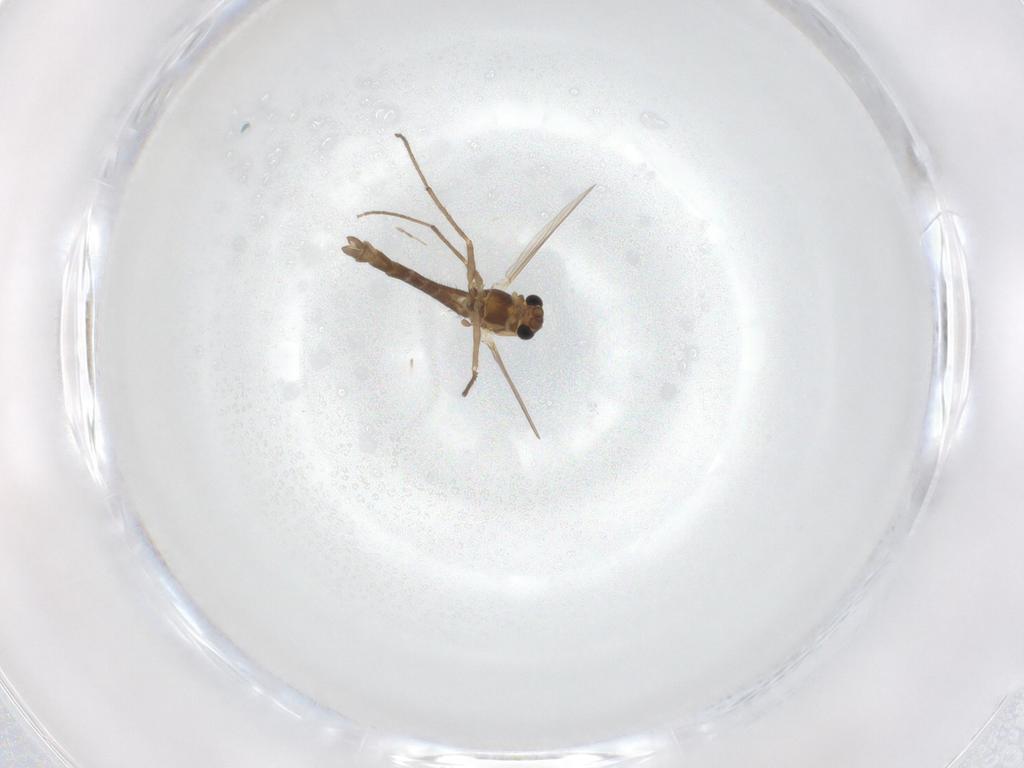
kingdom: Animalia
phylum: Arthropoda
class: Insecta
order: Diptera
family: Chironomidae
